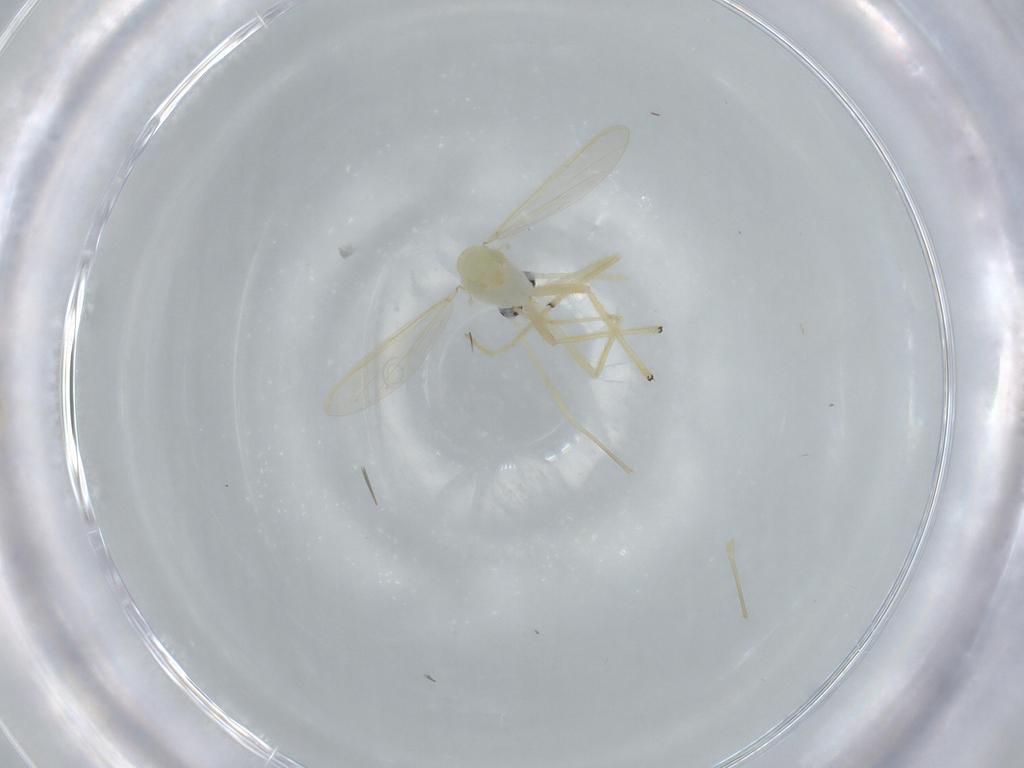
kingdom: Animalia
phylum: Arthropoda
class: Insecta
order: Diptera
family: Chironomidae
